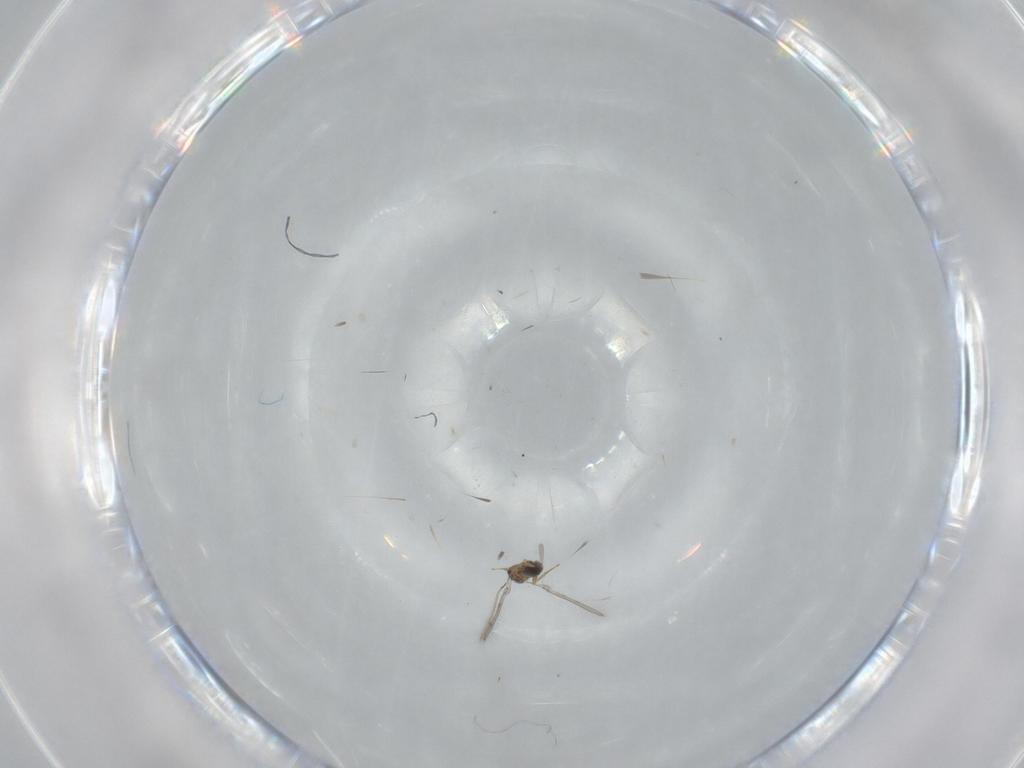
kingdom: Animalia
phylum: Arthropoda
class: Insecta
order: Hymenoptera
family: Mymaridae
